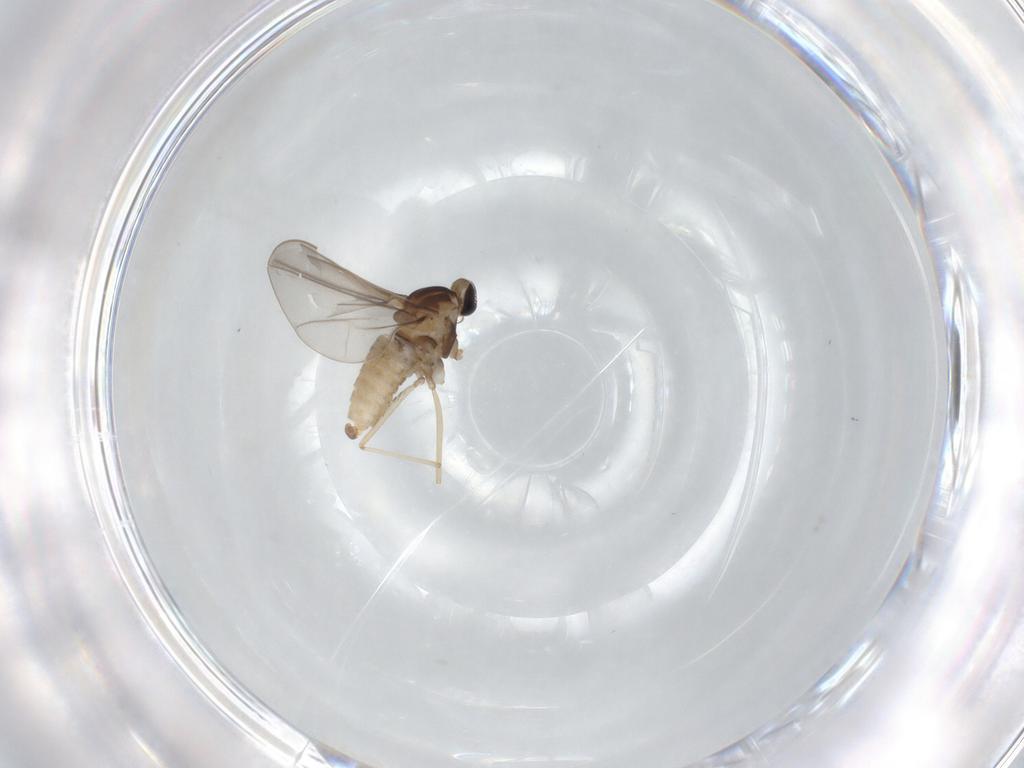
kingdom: Animalia
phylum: Arthropoda
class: Insecta
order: Diptera
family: Cecidomyiidae
